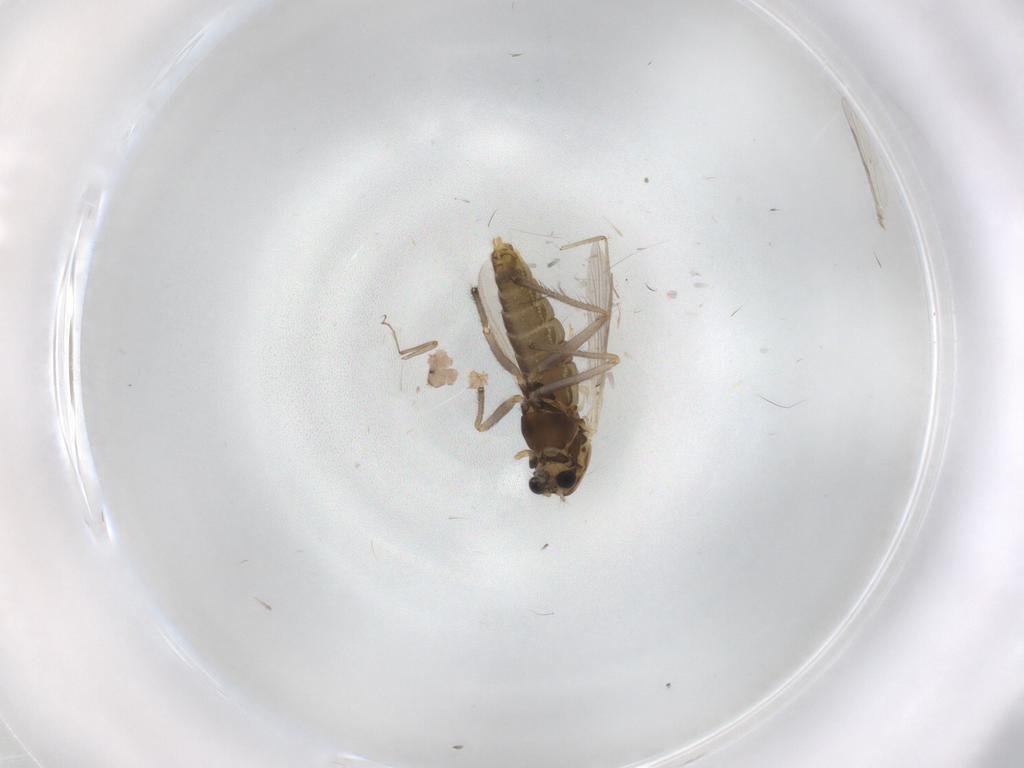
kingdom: Animalia
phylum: Arthropoda
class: Insecta
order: Diptera
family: Chironomidae
